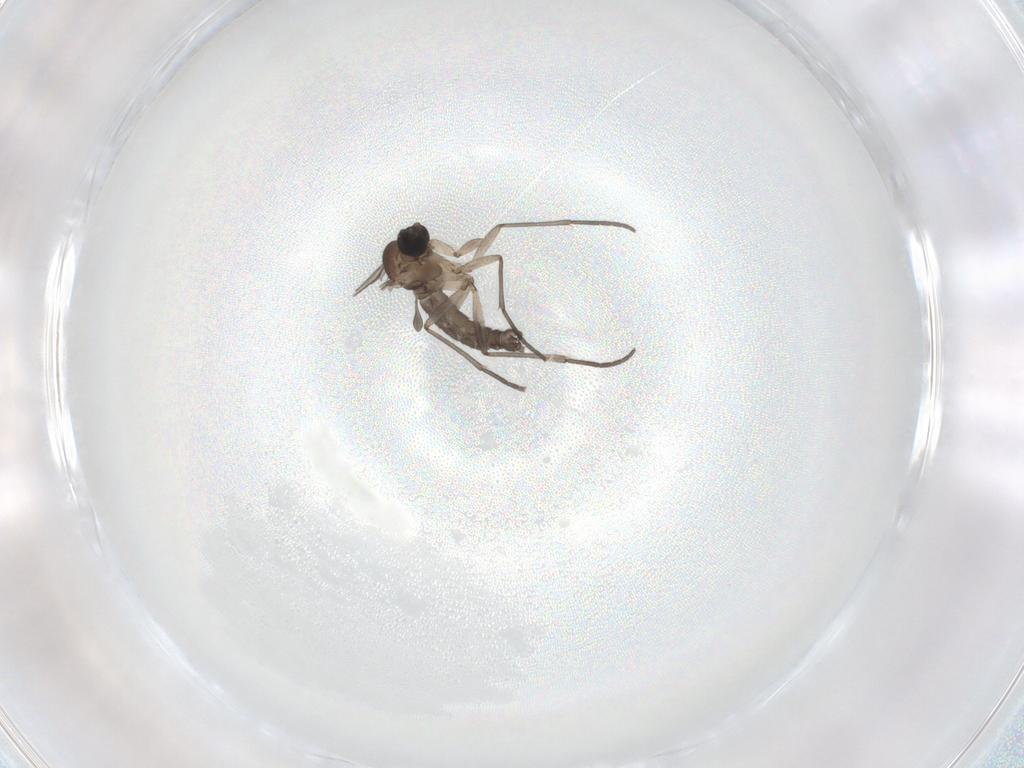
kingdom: Animalia
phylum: Arthropoda
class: Insecta
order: Diptera
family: Sciaridae
